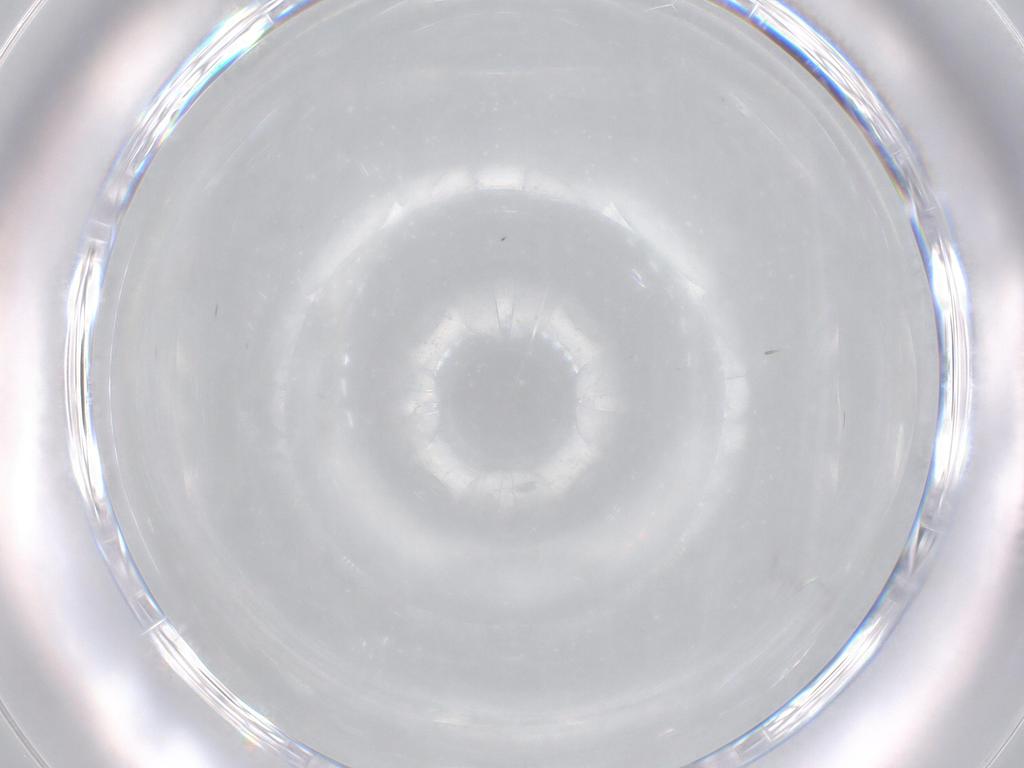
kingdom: Animalia
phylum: Arthropoda
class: Insecta
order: Diptera
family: Cecidomyiidae
